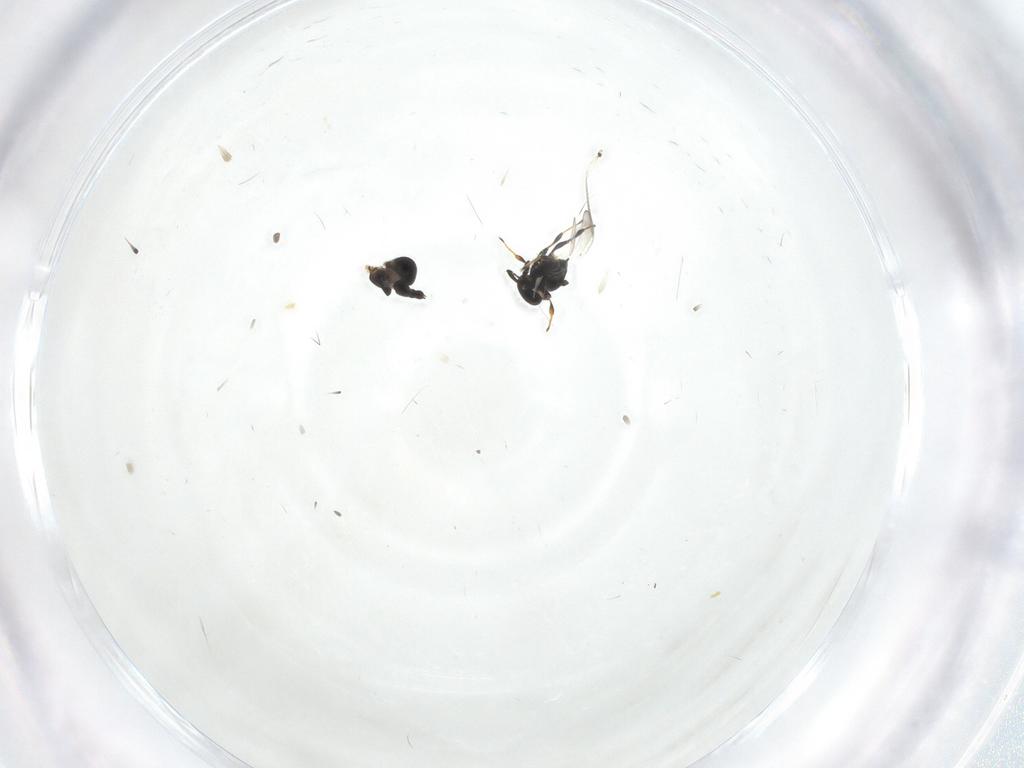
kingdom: Animalia
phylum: Arthropoda
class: Insecta
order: Hymenoptera
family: Platygastridae
